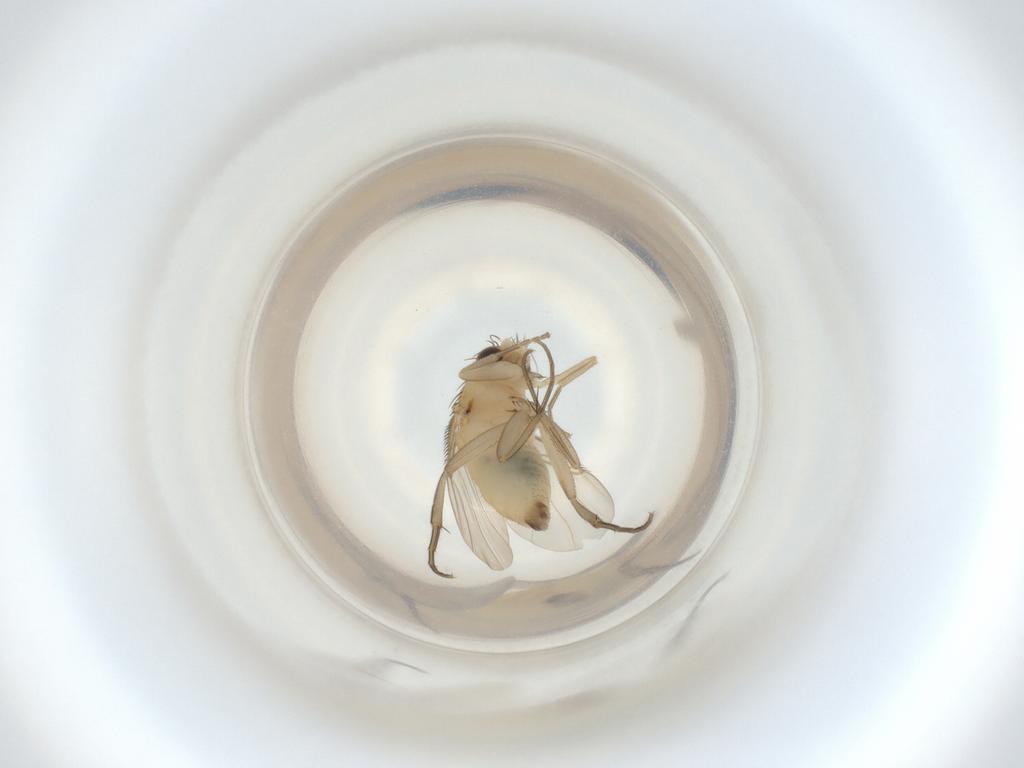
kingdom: Animalia
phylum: Arthropoda
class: Insecta
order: Diptera
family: Phoridae
